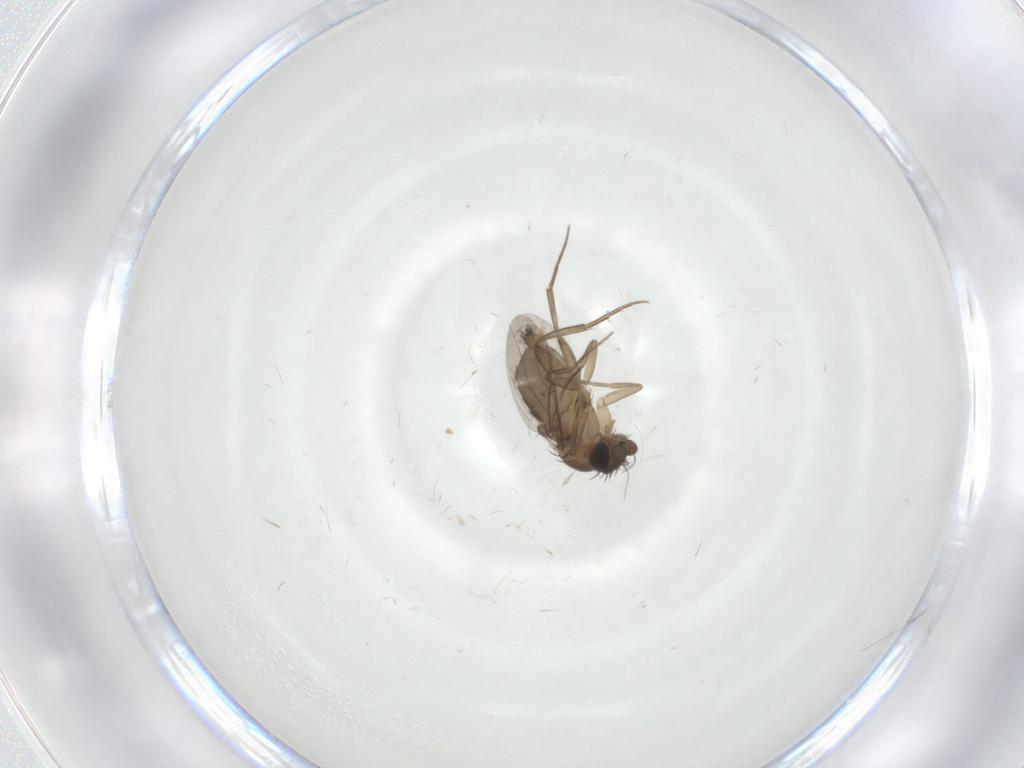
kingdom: Animalia
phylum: Arthropoda
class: Insecta
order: Diptera
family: Phoridae
